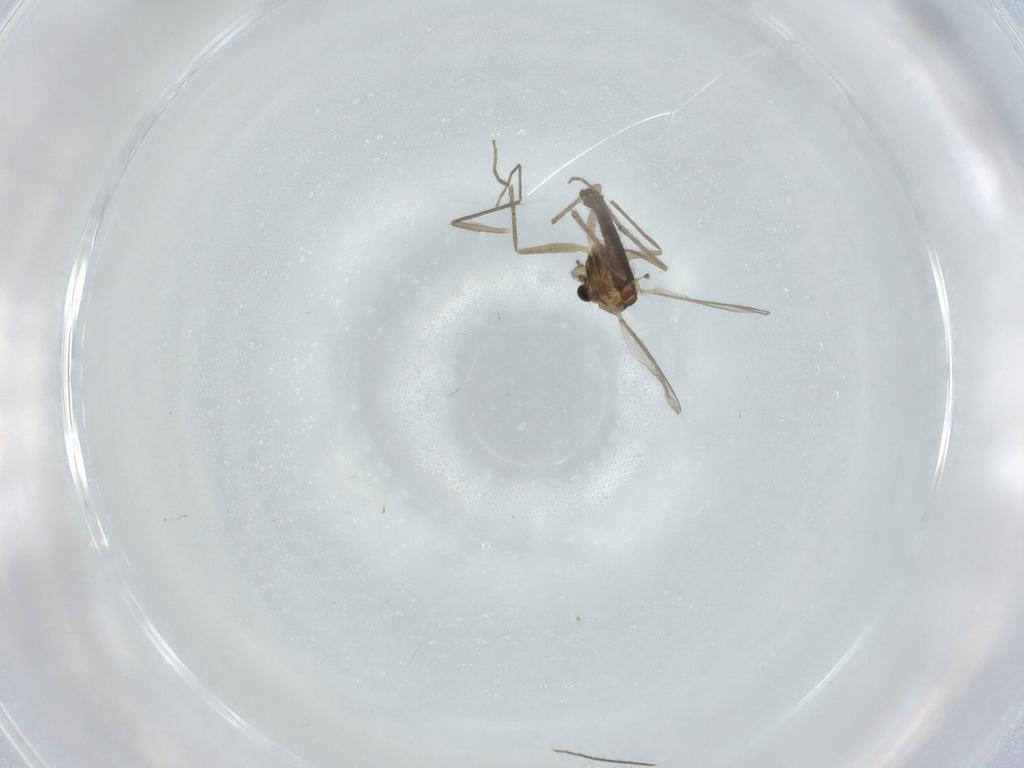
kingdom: Animalia
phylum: Arthropoda
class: Insecta
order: Diptera
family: Chironomidae
